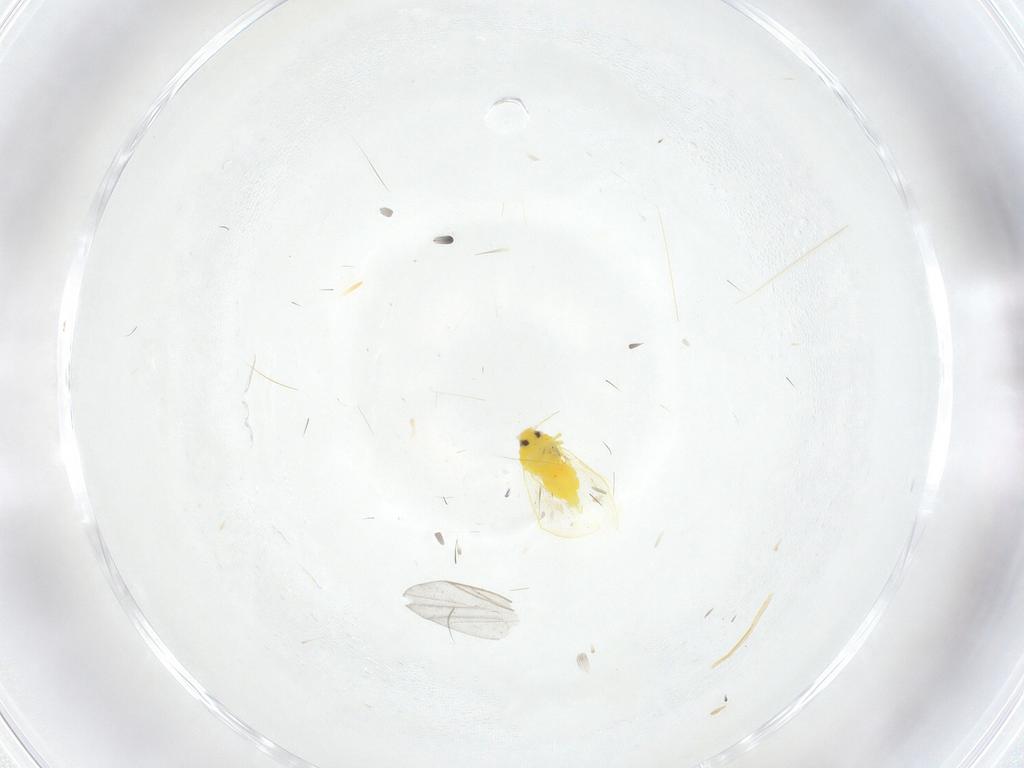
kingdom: Animalia
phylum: Arthropoda
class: Insecta
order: Hemiptera
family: Aleyrodidae
